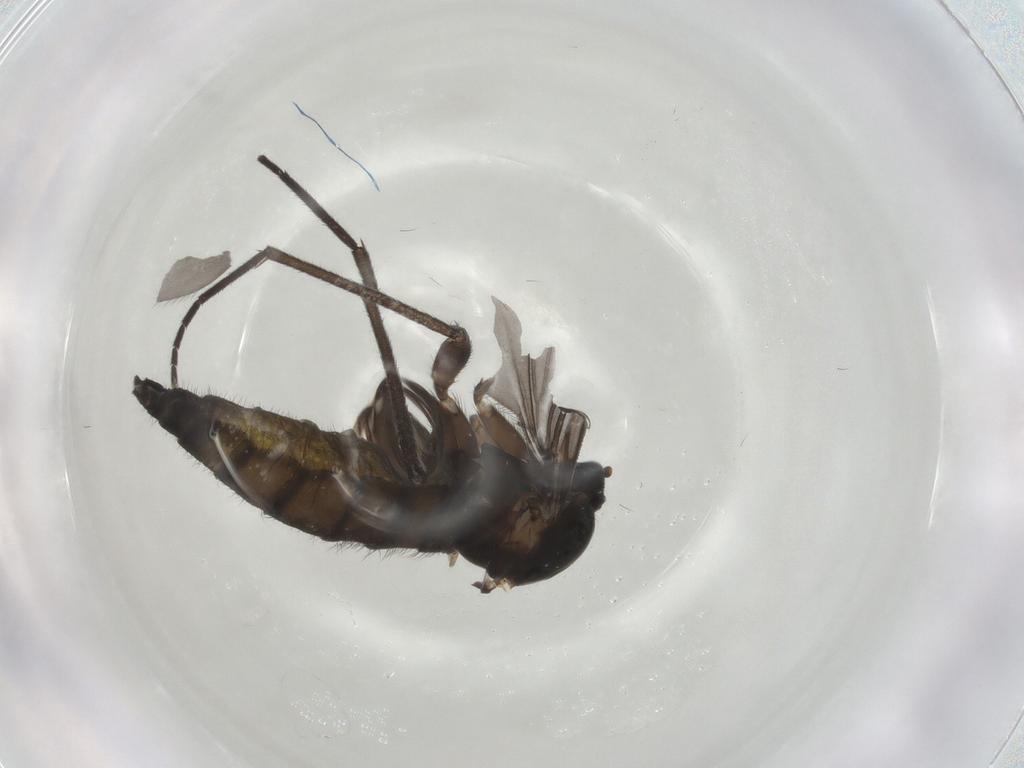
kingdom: Animalia
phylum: Arthropoda
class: Insecta
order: Diptera
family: Sciaridae
